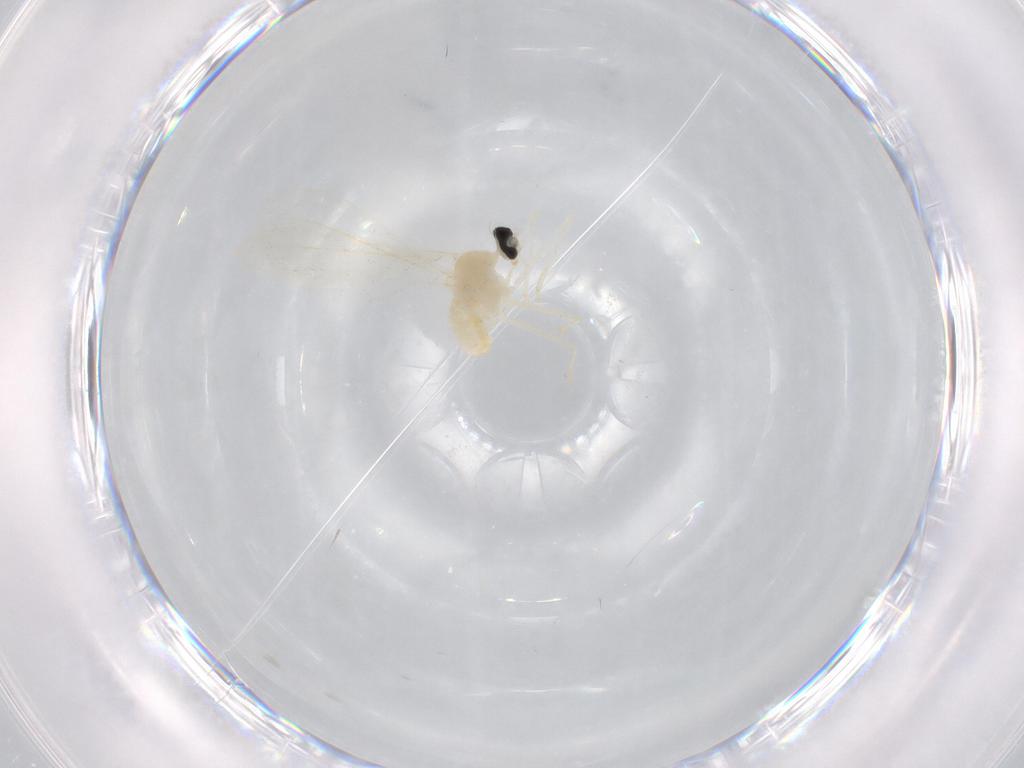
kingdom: Animalia
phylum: Arthropoda
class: Insecta
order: Diptera
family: Cecidomyiidae
